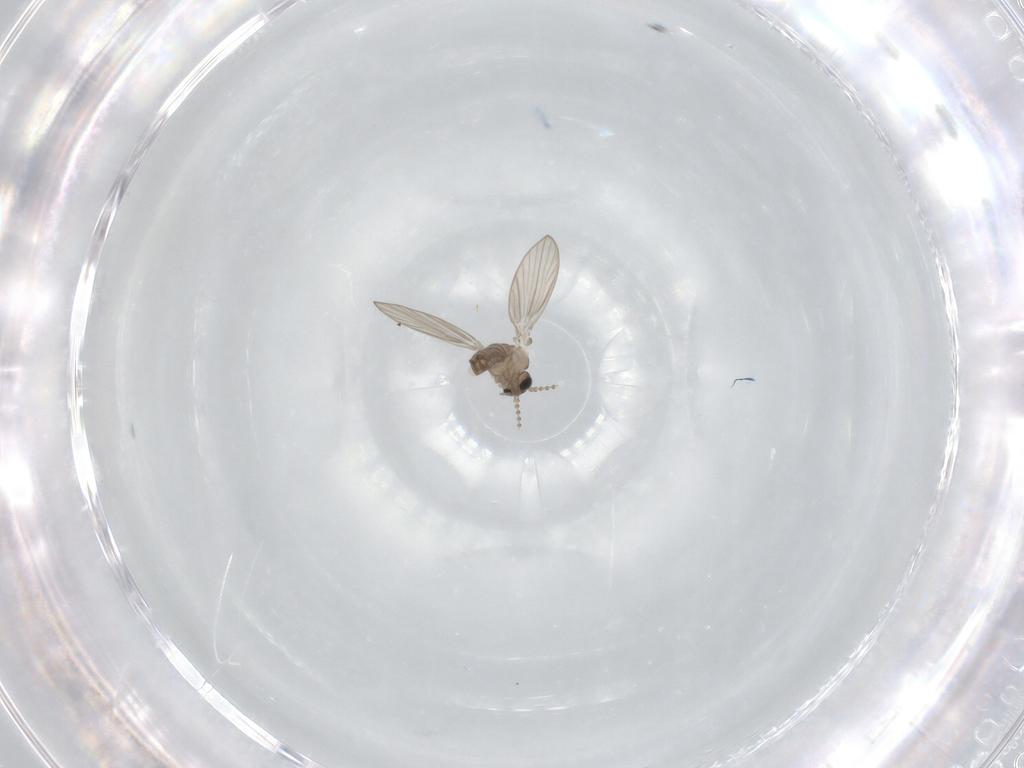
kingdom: Animalia
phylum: Arthropoda
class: Insecta
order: Diptera
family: Psychodidae
